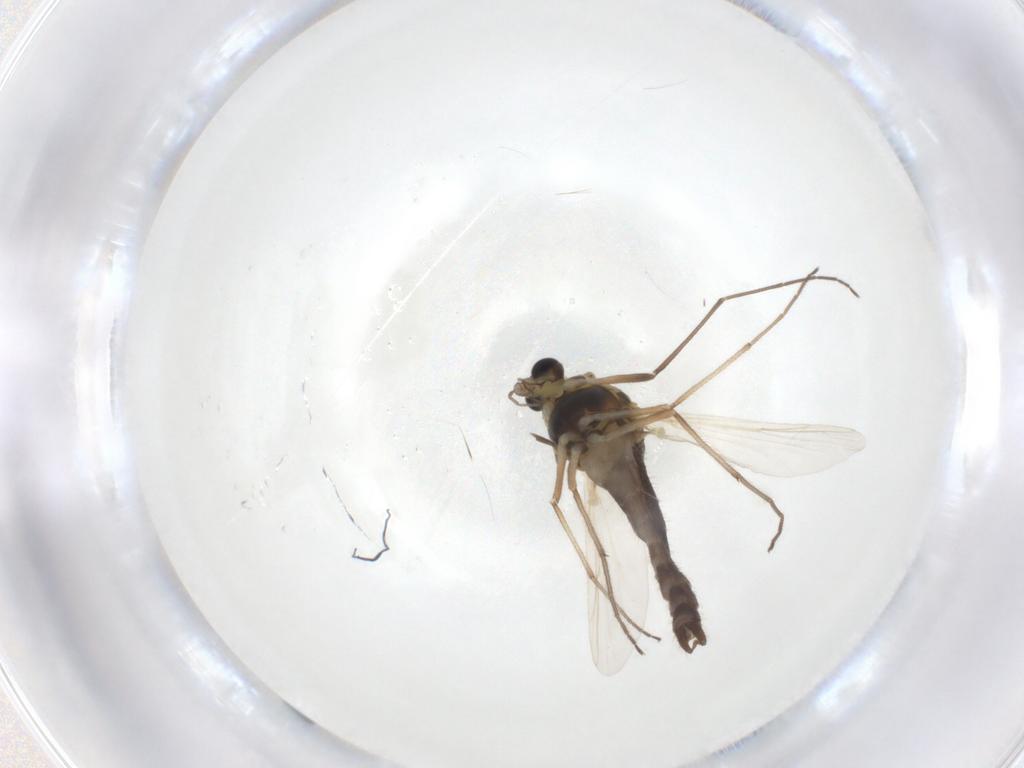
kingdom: Animalia
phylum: Arthropoda
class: Insecta
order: Diptera
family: Chironomidae
